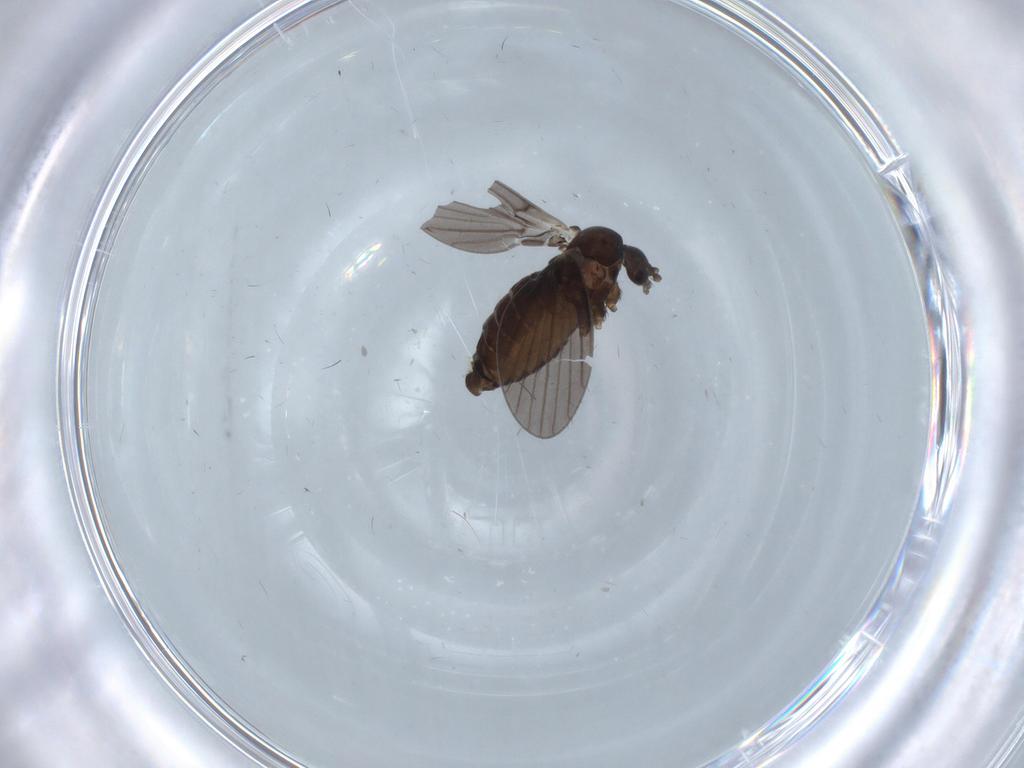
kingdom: Animalia
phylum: Arthropoda
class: Insecta
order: Diptera
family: Psychodidae
